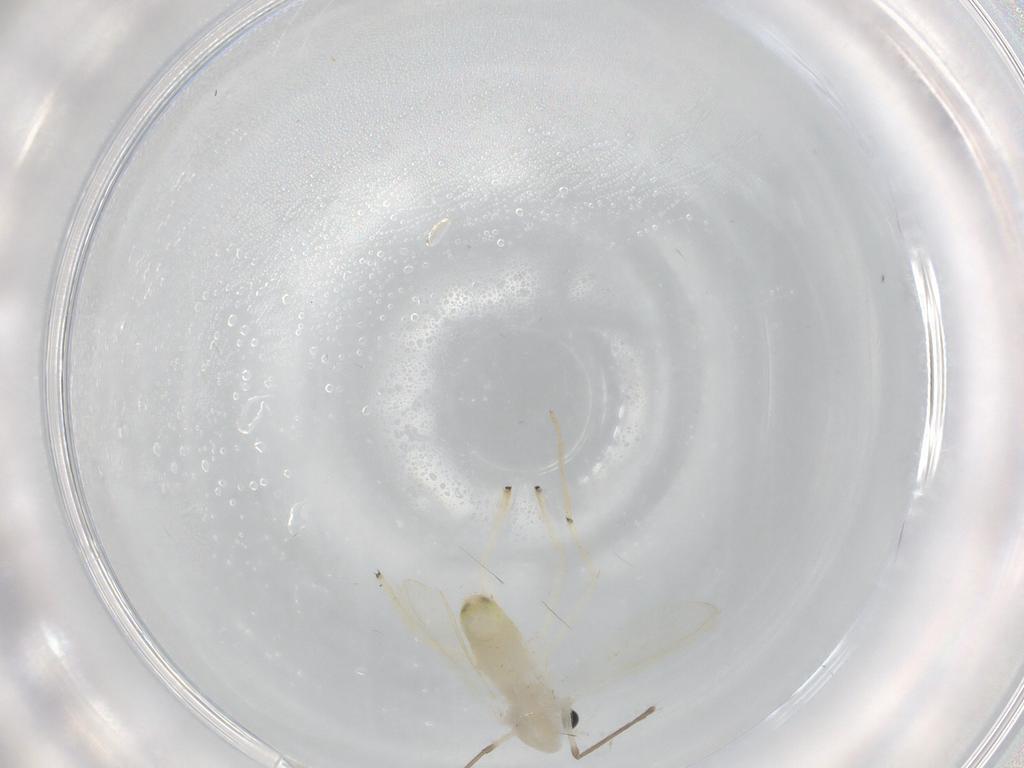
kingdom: Animalia
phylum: Arthropoda
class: Insecta
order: Diptera
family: Chironomidae
